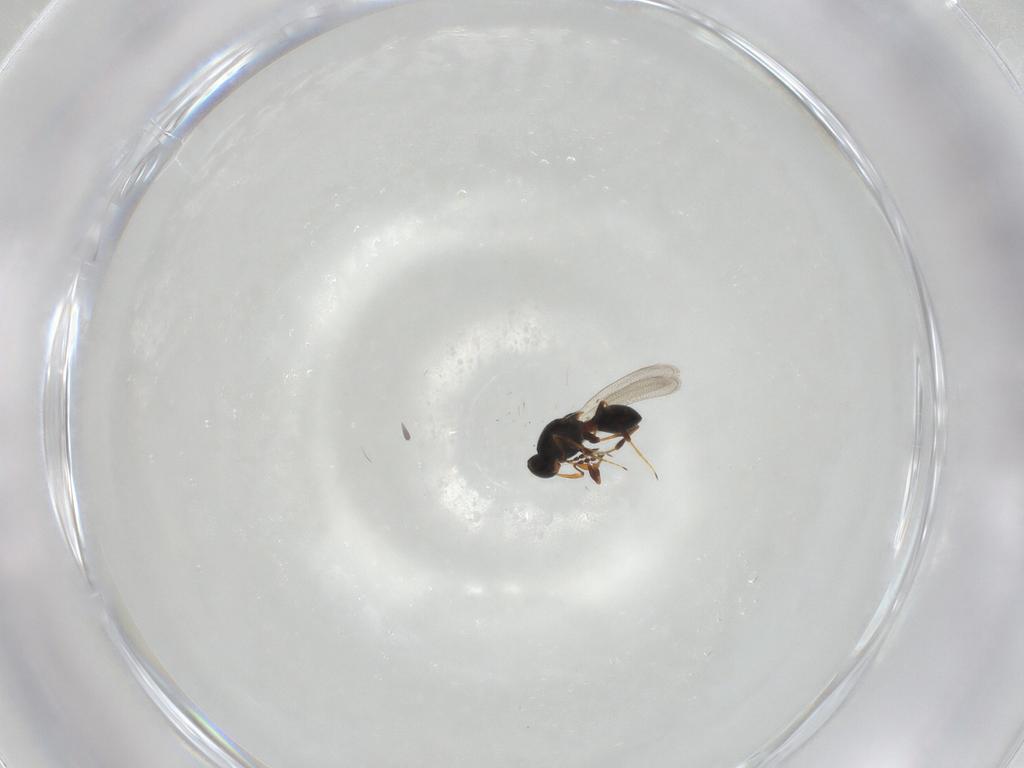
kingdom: Animalia
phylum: Arthropoda
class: Insecta
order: Hymenoptera
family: Platygastridae
